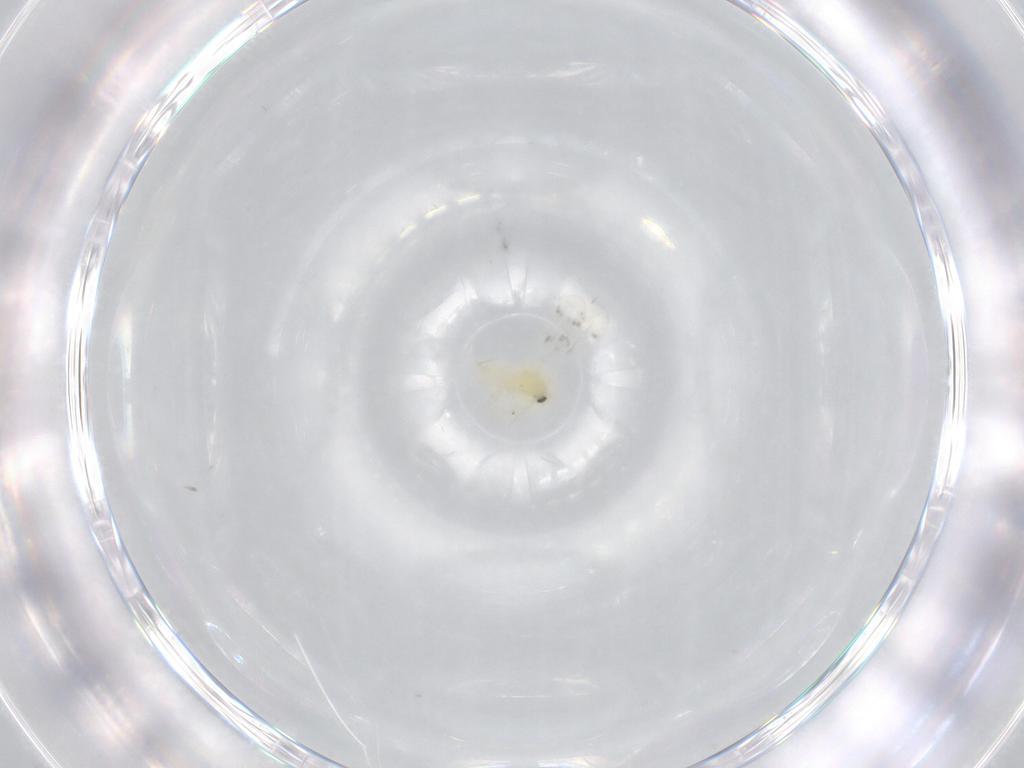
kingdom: Animalia
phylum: Arthropoda
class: Insecta
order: Hemiptera
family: Aleyrodidae
